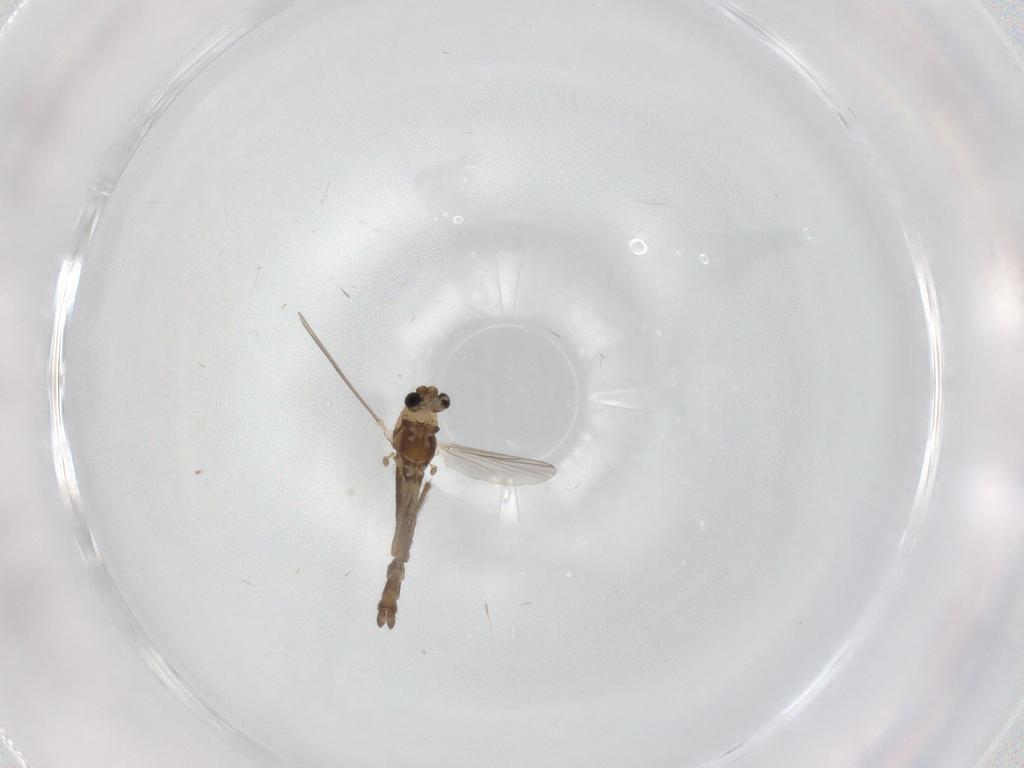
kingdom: Animalia
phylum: Arthropoda
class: Insecta
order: Diptera
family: Chironomidae
